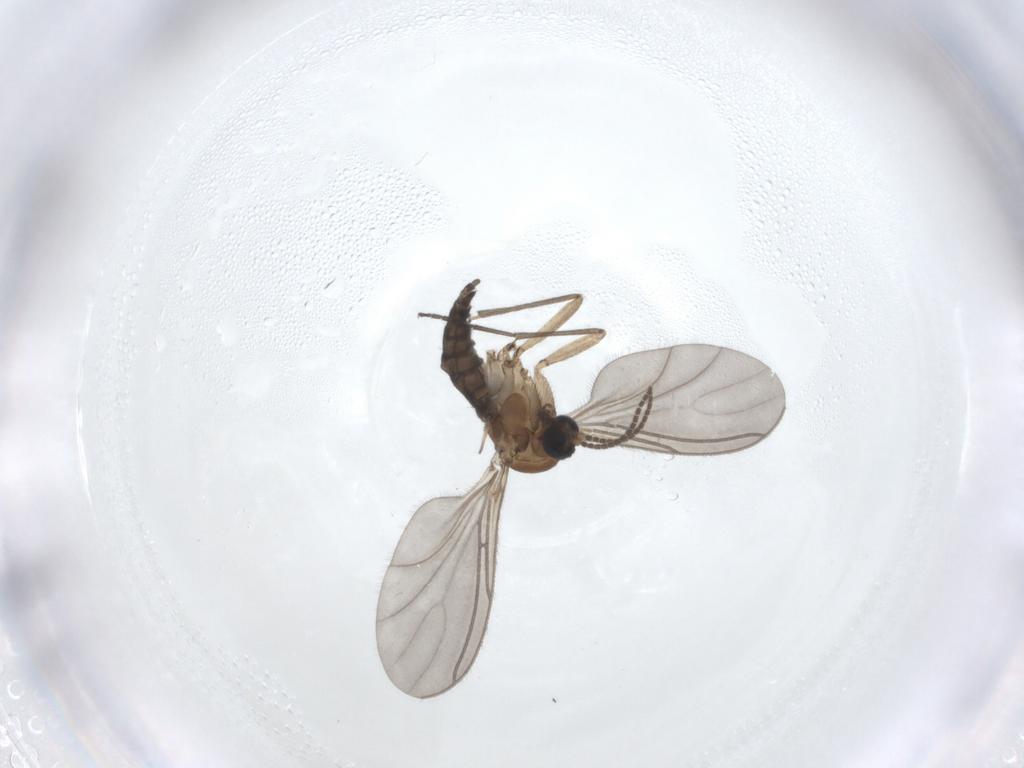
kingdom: Animalia
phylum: Arthropoda
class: Insecta
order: Diptera
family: Sciaridae
